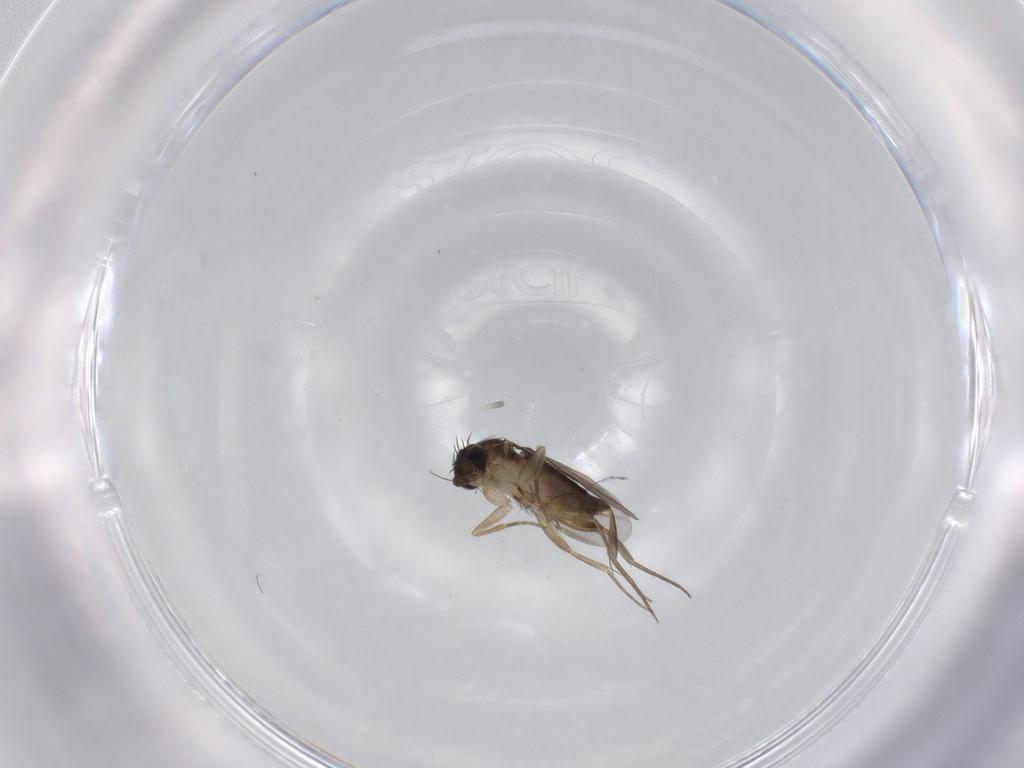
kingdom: Animalia
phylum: Arthropoda
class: Insecta
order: Diptera
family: Phoridae
